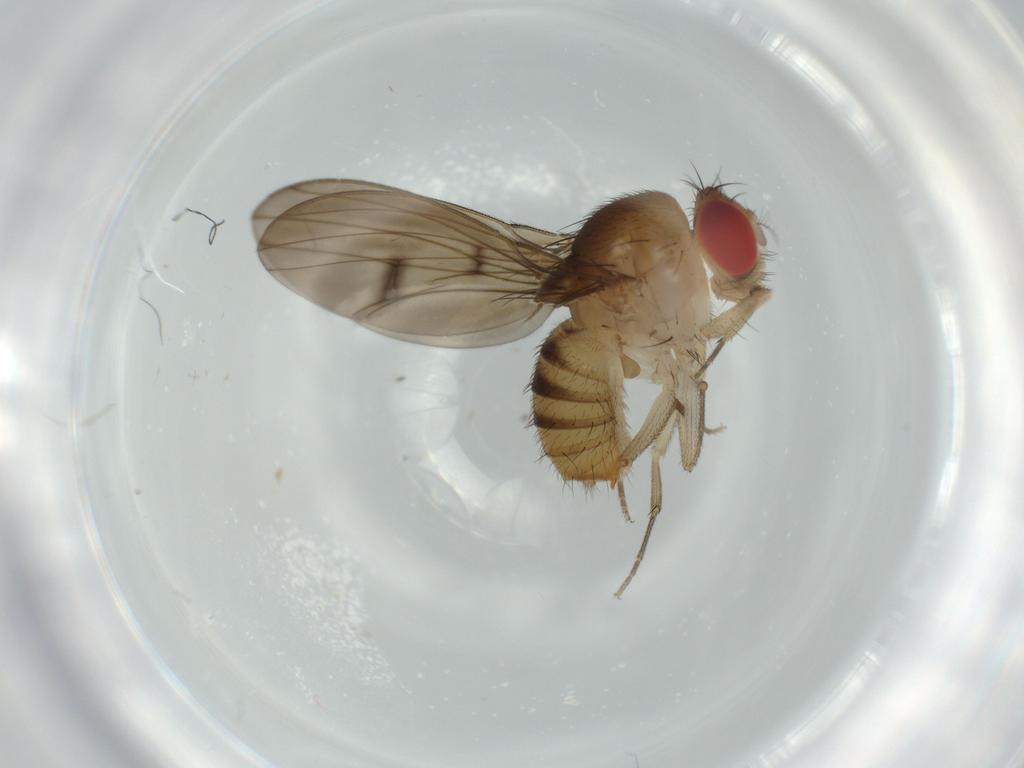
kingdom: Animalia
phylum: Arthropoda
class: Insecta
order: Diptera
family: Drosophilidae
